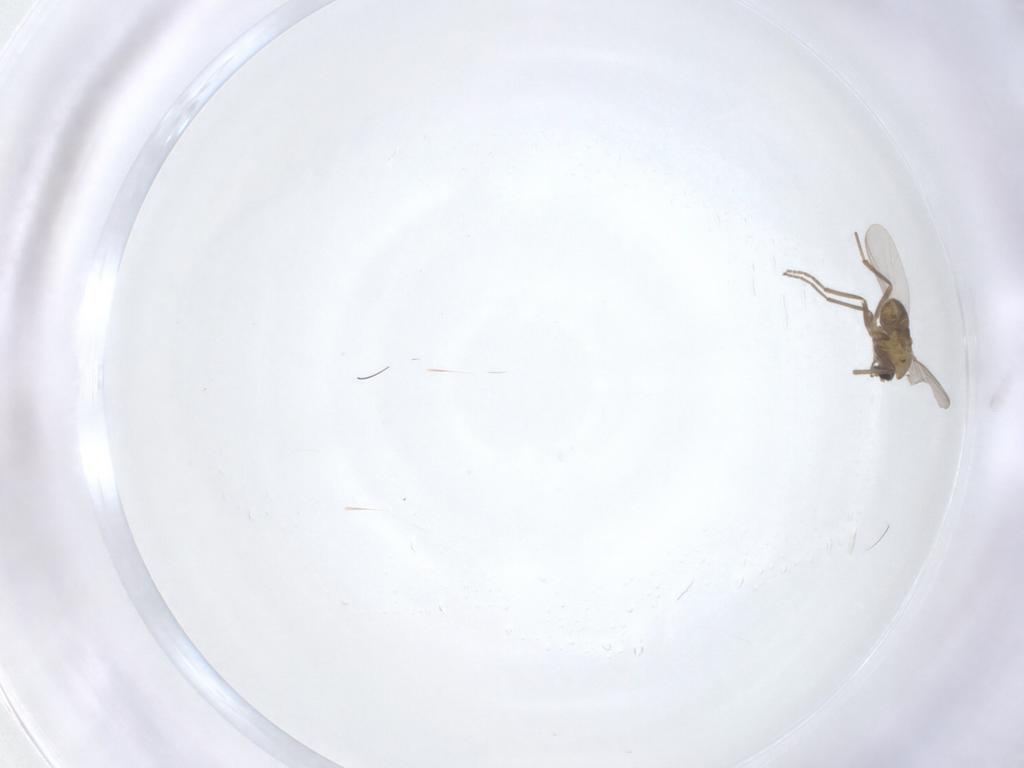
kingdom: Animalia
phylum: Arthropoda
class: Insecta
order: Diptera
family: Chironomidae
